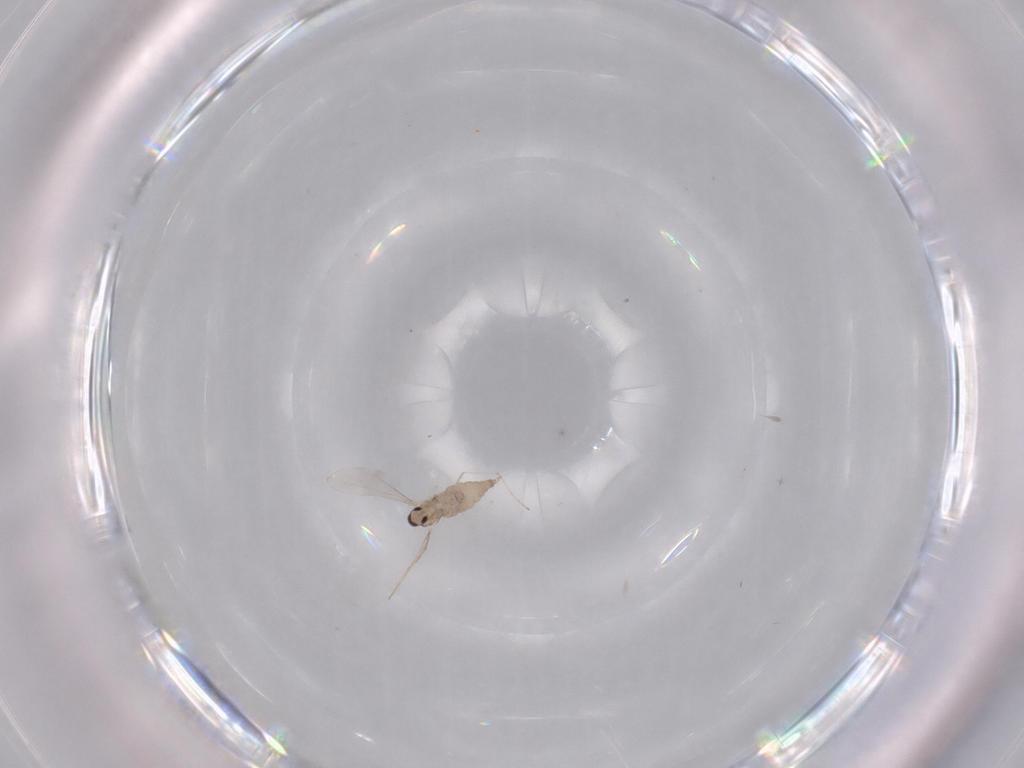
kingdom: Animalia
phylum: Arthropoda
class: Insecta
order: Diptera
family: Cecidomyiidae
